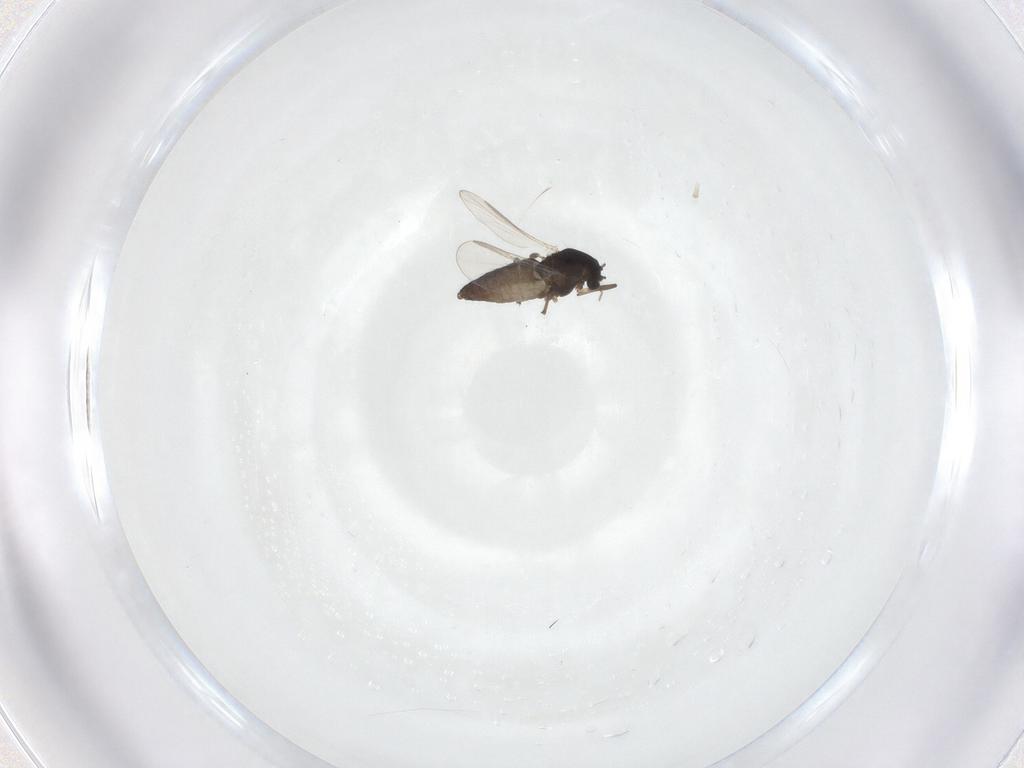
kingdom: Animalia
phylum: Arthropoda
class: Insecta
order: Diptera
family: Chironomidae
